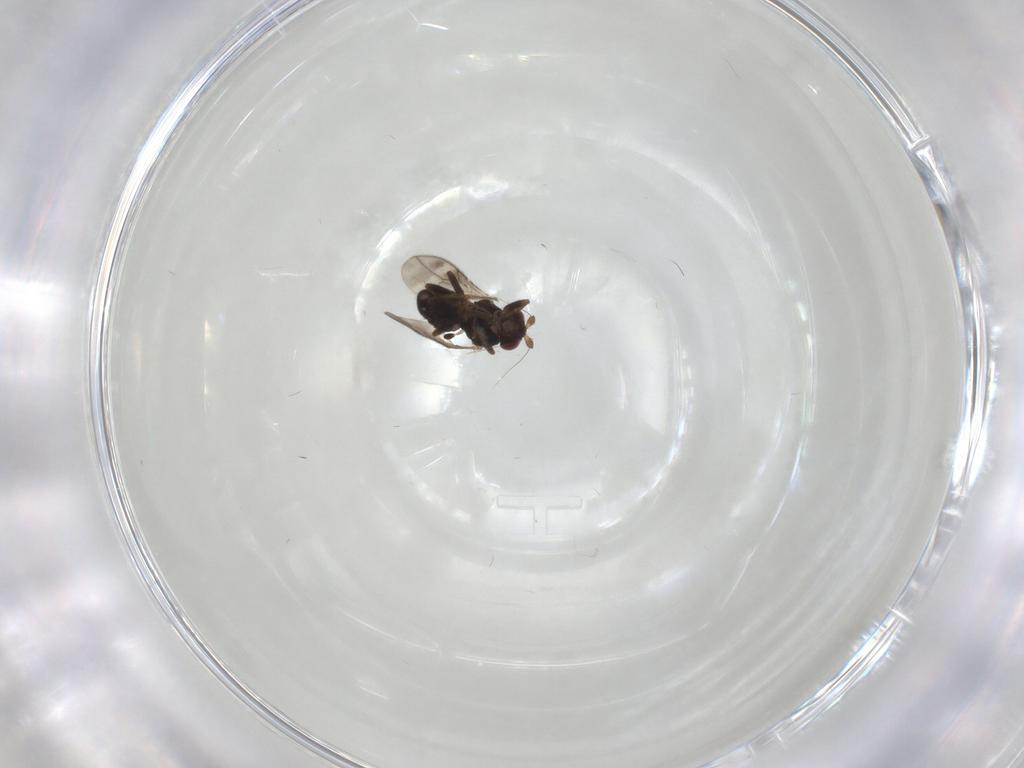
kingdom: Animalia
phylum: Arthropoda
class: Insecta
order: Diptera
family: Sphaeroceridae
